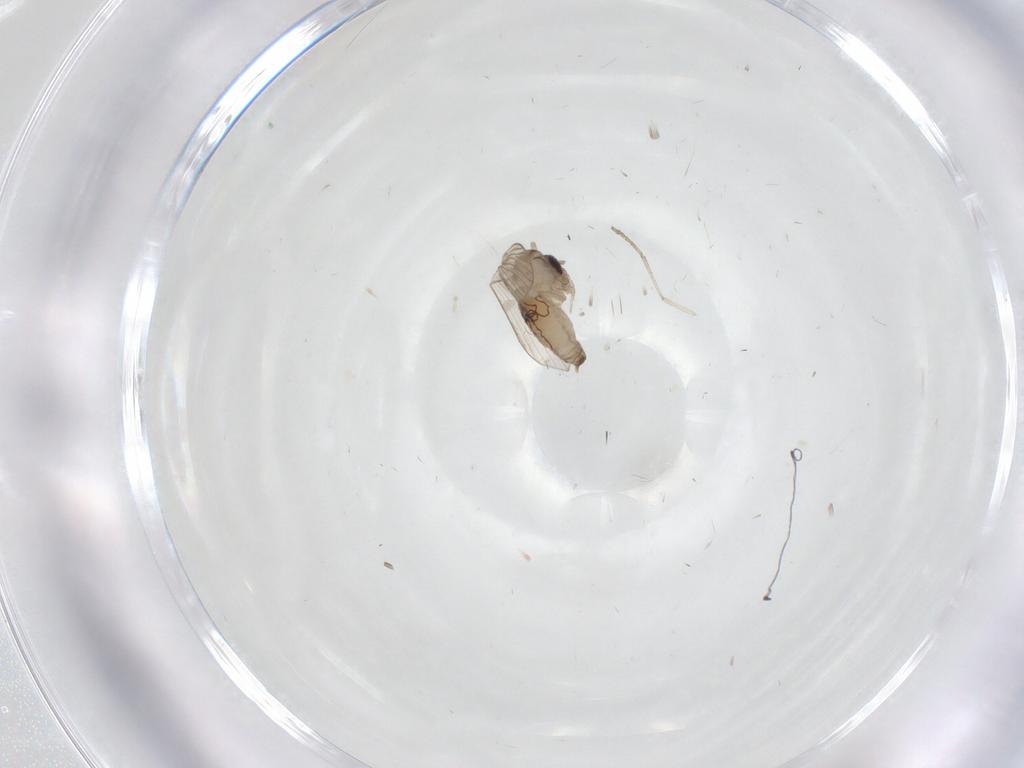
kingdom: Animalia
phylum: Arthropoda
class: Insecta
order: Diptera
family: Psychodidae
